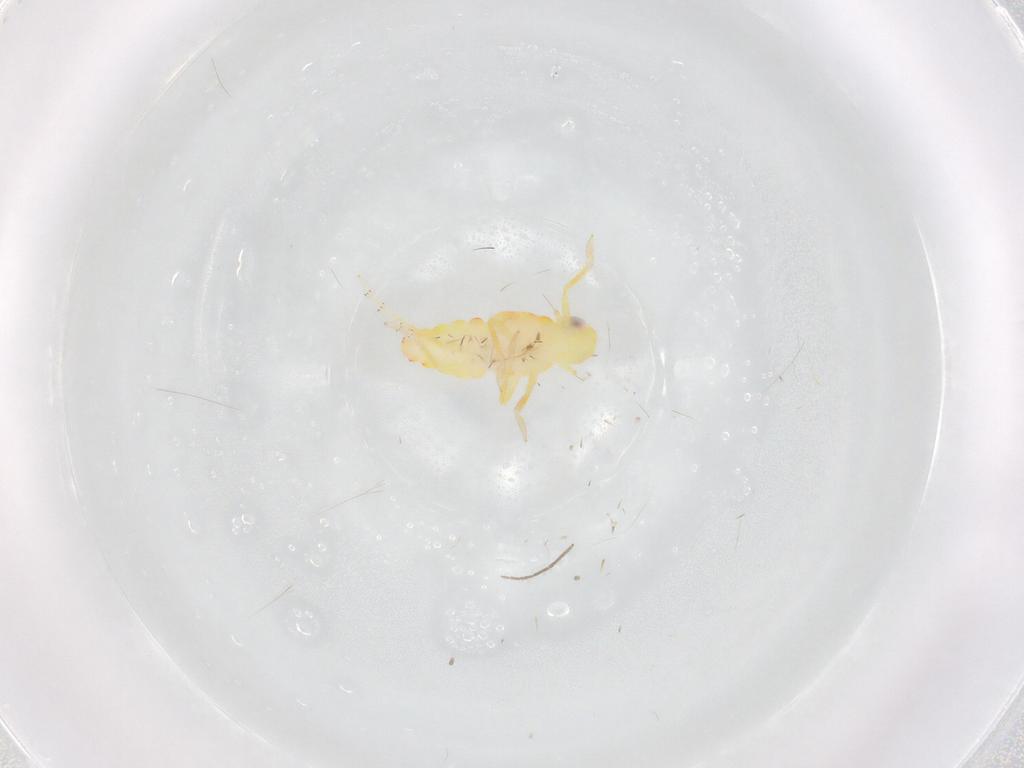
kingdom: Animalia
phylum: Arthropoda
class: Insecta
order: Hemiptera
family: Tropiduchidae
